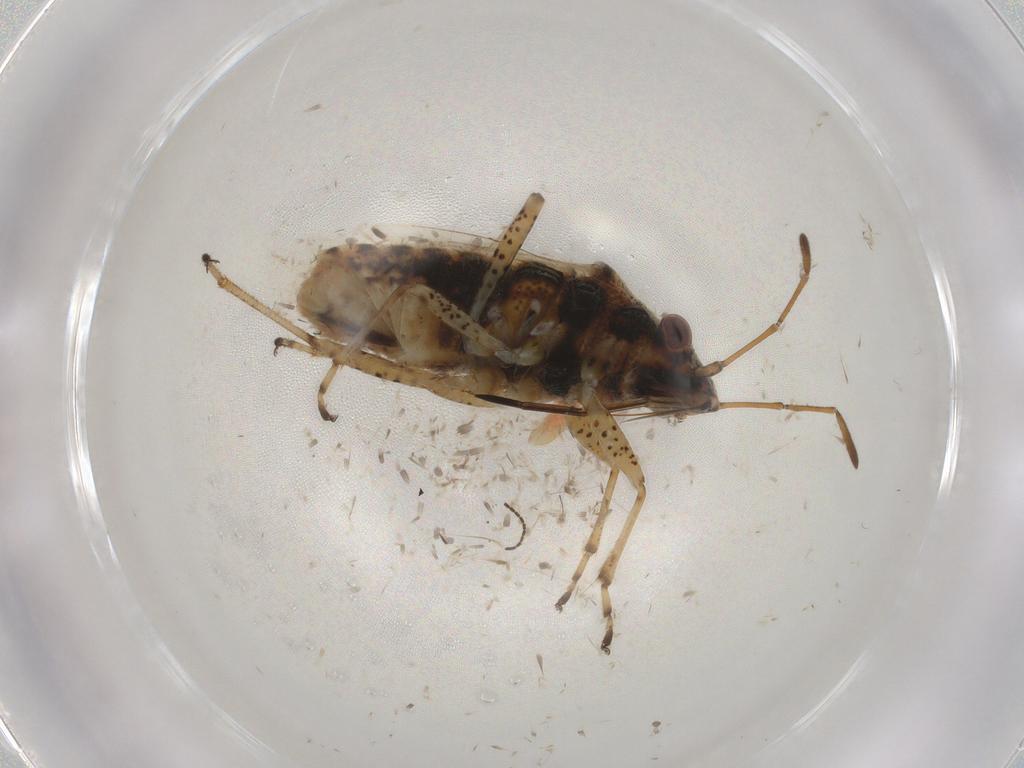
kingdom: Animalia
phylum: Arthropoda
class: Insecta
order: Hemiptera
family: Lygaeidae
